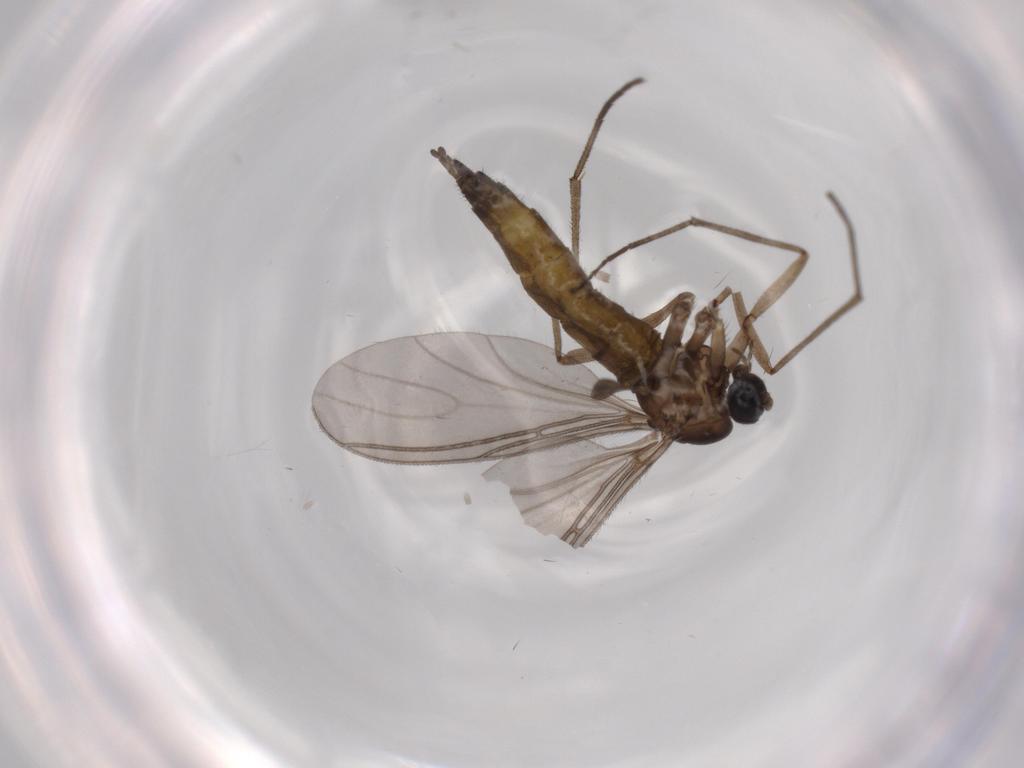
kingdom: Animalia
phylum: Arthropoda
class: Insecta
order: Diptera
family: Sciaridae
